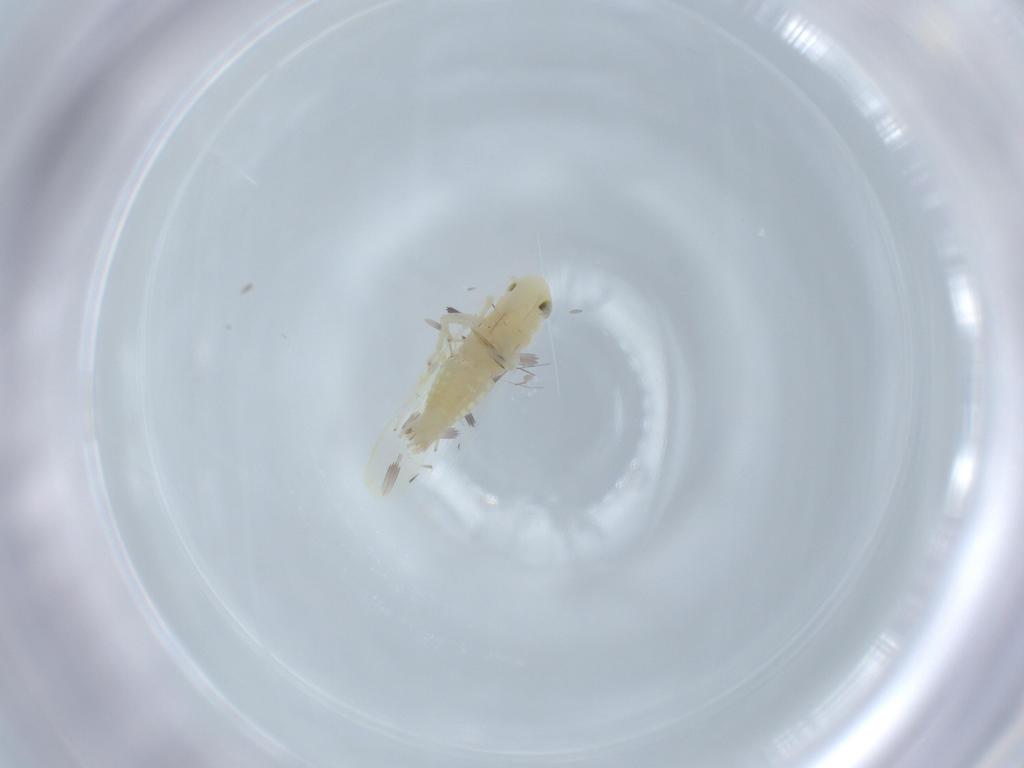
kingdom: Animalia
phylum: Arthropoda
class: Insecta
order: Hemiptera
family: Cicadellidae
